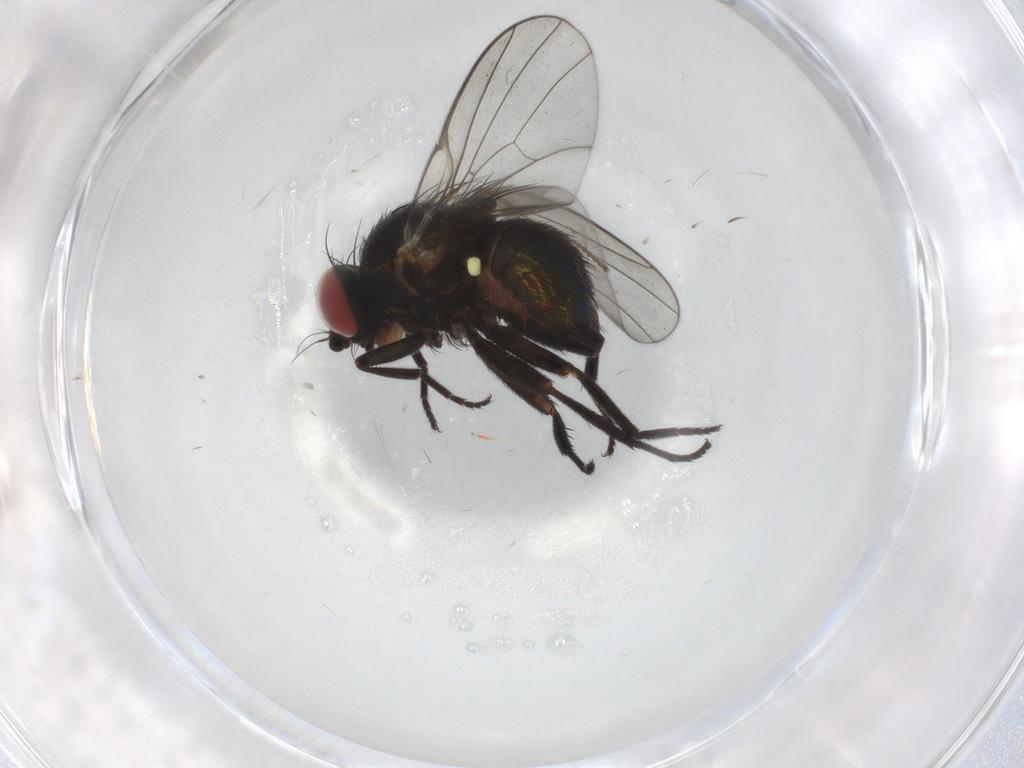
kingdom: Animalia
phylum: Arthropoda
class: Insecta
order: Diptera
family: Agromyzidae
